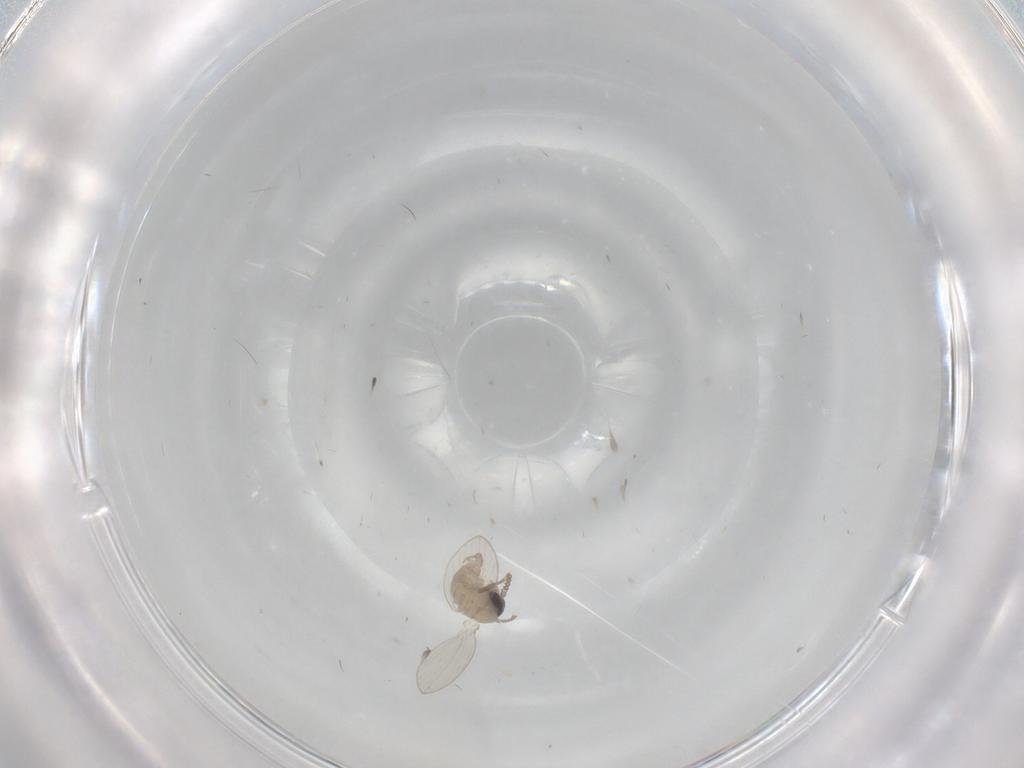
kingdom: Animalia
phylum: Arthropoda
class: Insecta
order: Diptera
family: Psychodidae
